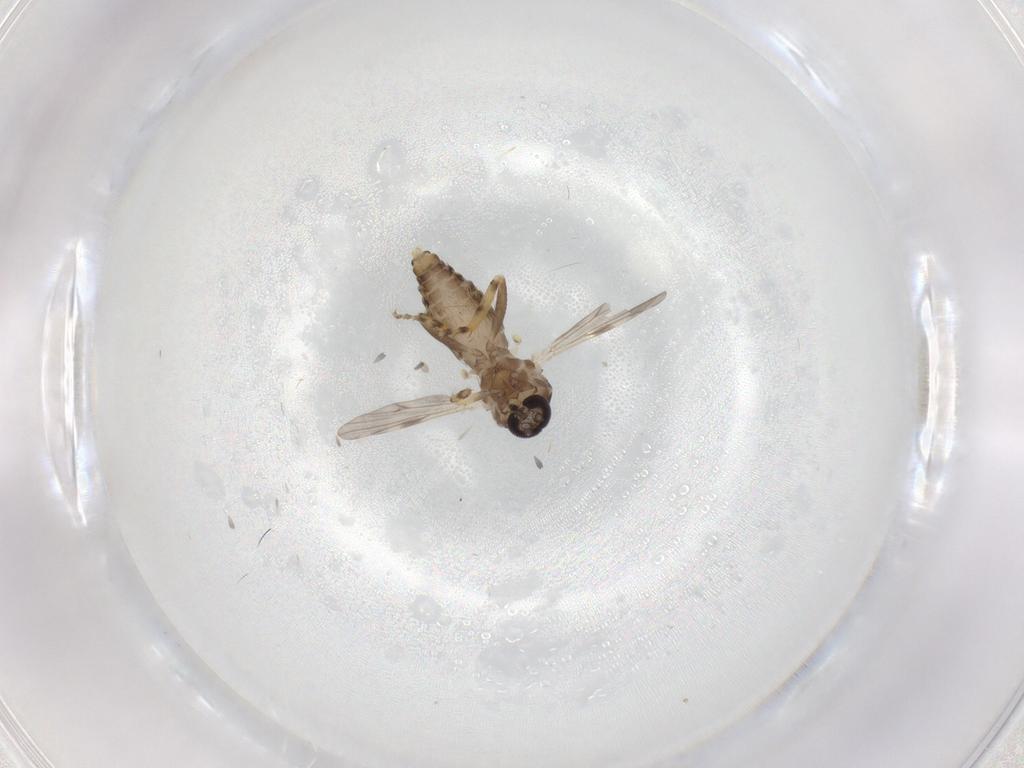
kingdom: Animalia
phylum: Arthropoda
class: Insecta
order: Diptera
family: Ceratopogonidae
